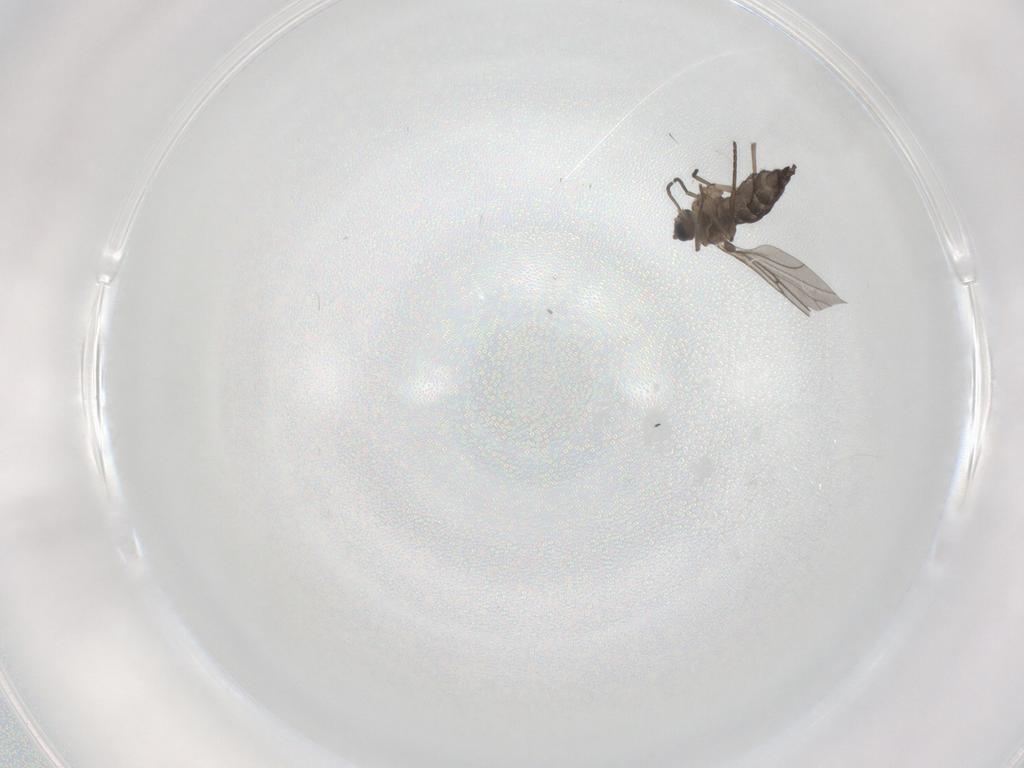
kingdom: Animalia
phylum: Arthropoda
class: Insecta
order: Diptera
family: Sciaridae
